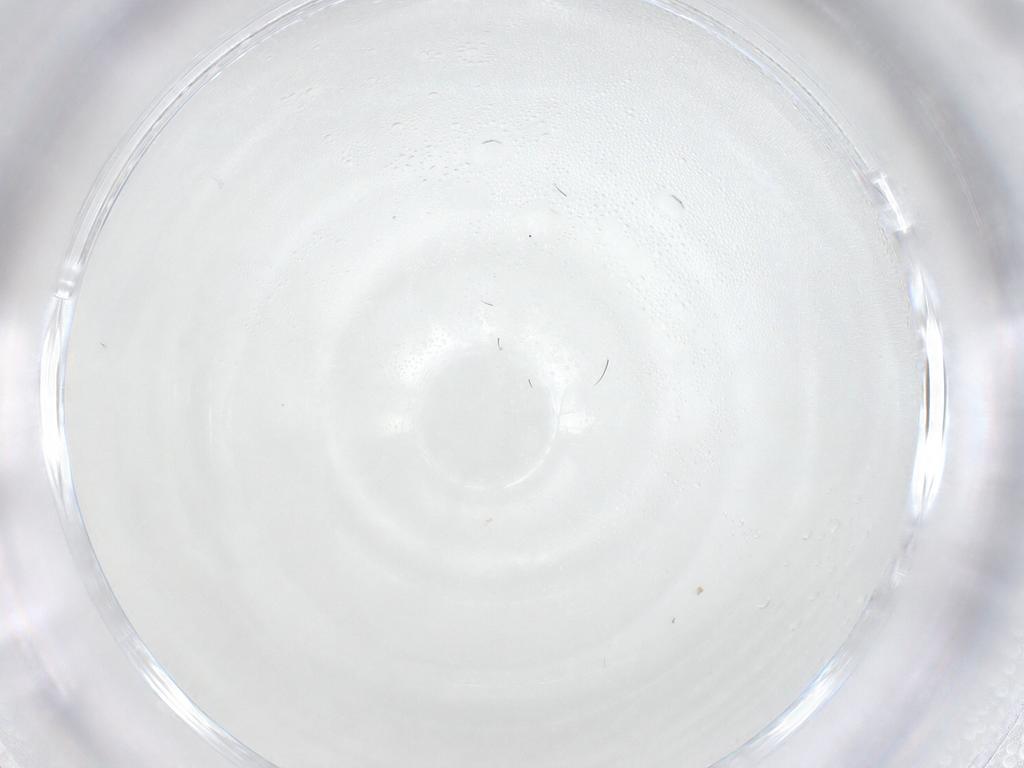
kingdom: Animalia
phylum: Arthropoda
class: Insecta
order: Diptera
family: Cecidomyiidae
